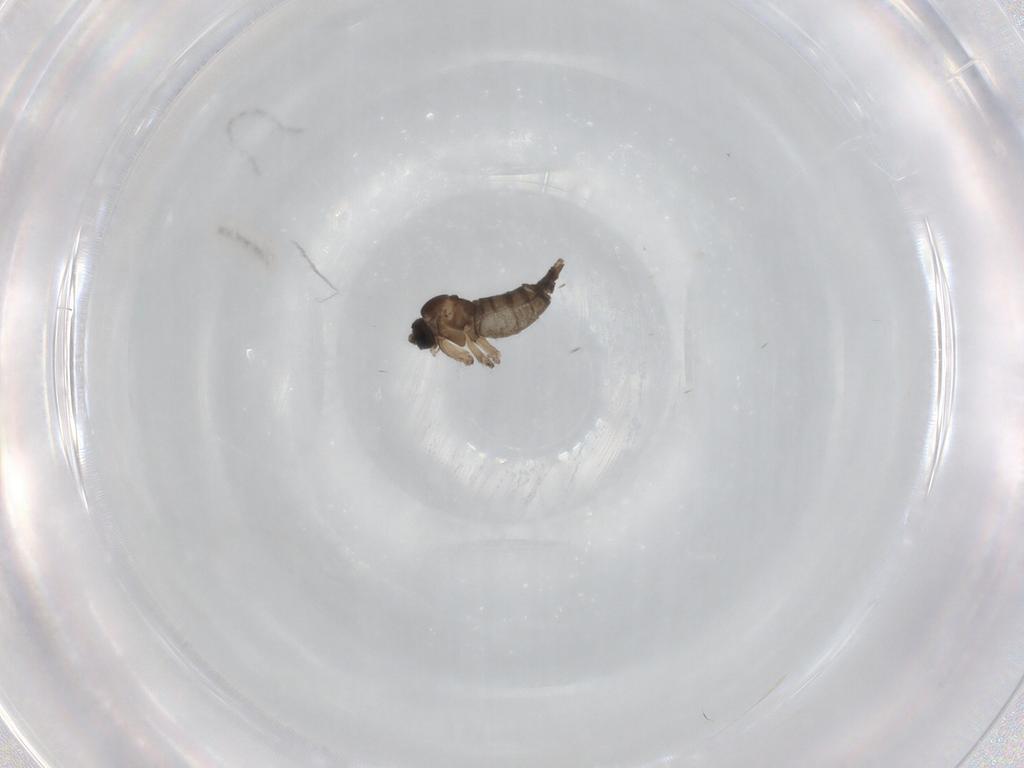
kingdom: Animalia
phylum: Arthropoda
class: Insecta
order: Diptera
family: Sciaridae
